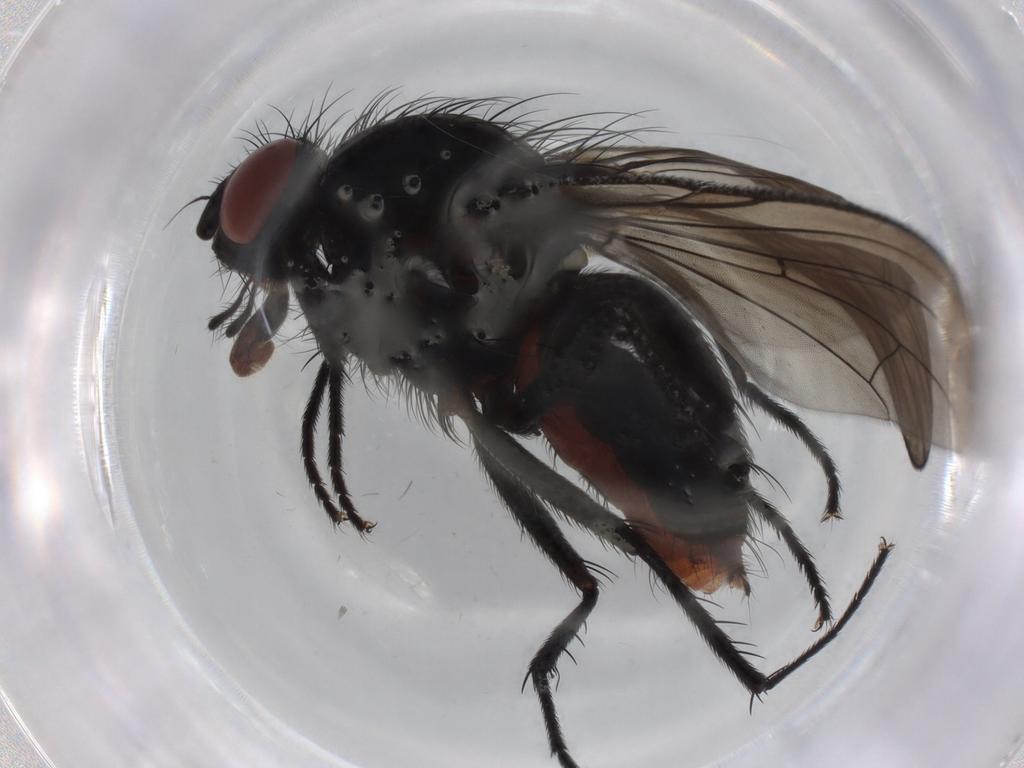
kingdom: Animalia
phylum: Arthropoda
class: Insecta
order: Diptera
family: Anthomyiidae
